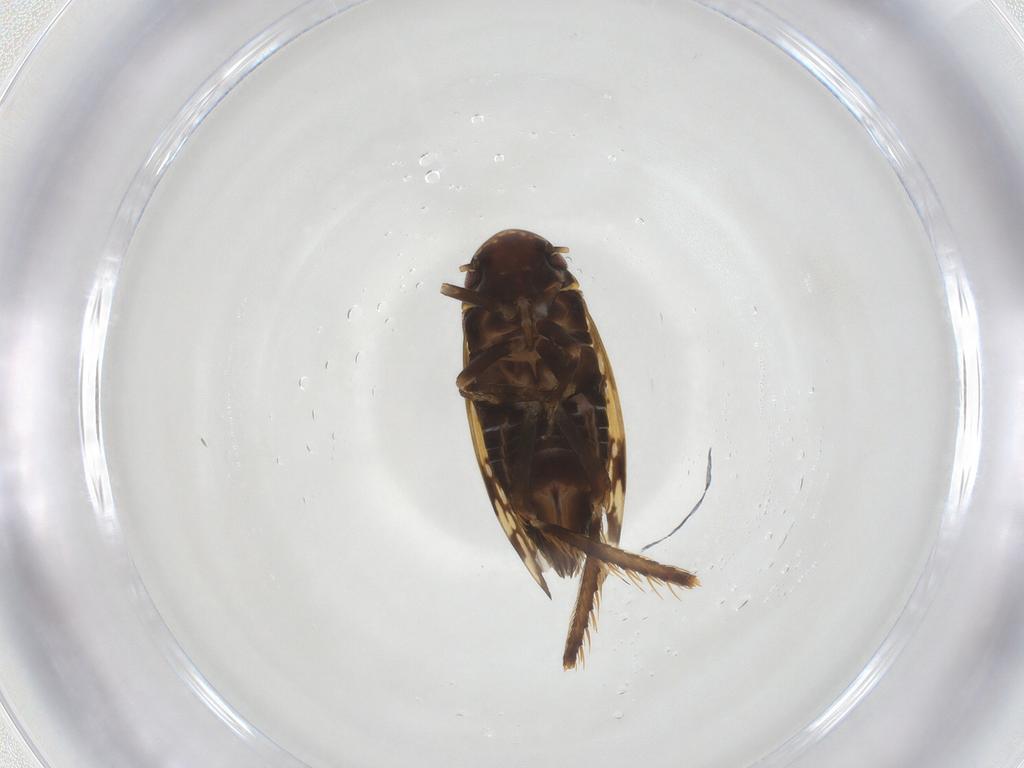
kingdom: Animalia
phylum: Arthropoda
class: Insecta
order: Hemiptera
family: Cicadellidae
